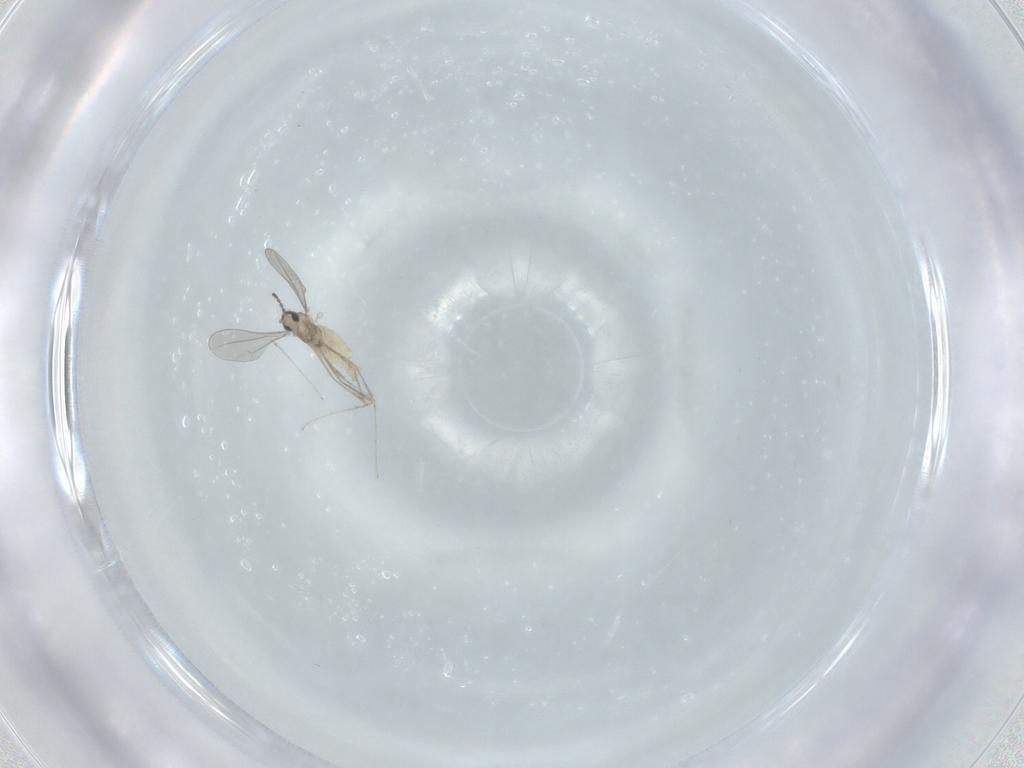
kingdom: Animalia
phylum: Arthropoda
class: Insecta
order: Diptera
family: Cecidomyiidae
